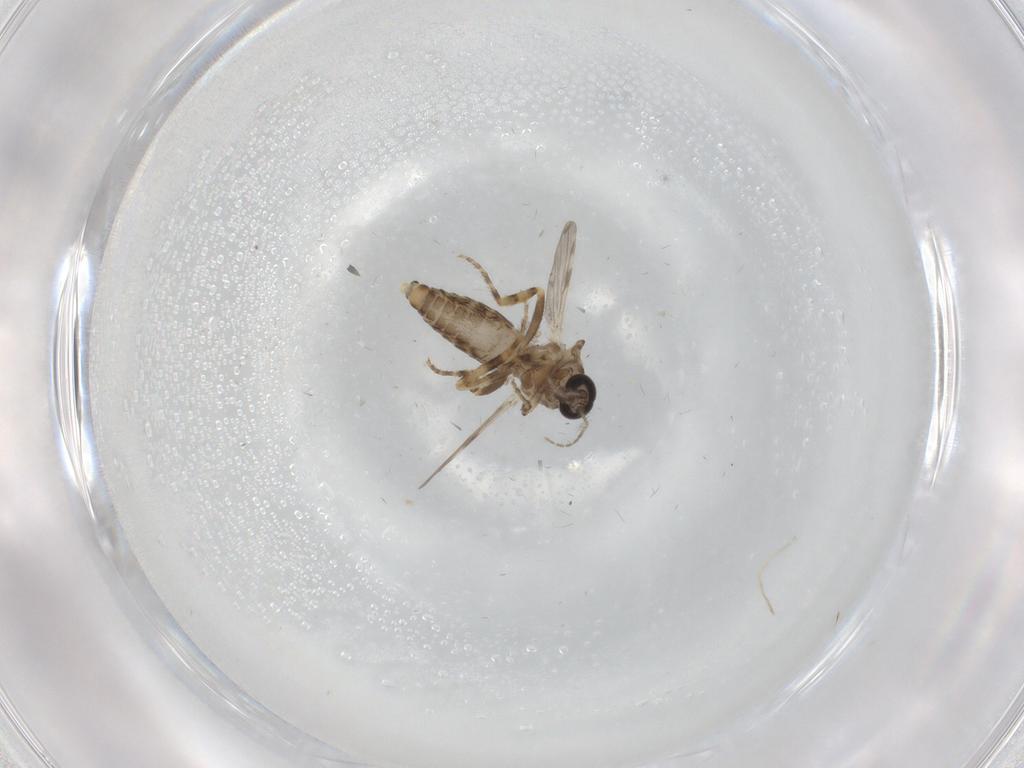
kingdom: Animalia
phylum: Arthropoda
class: Insecta
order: Diptera
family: Ceratopogonidae
